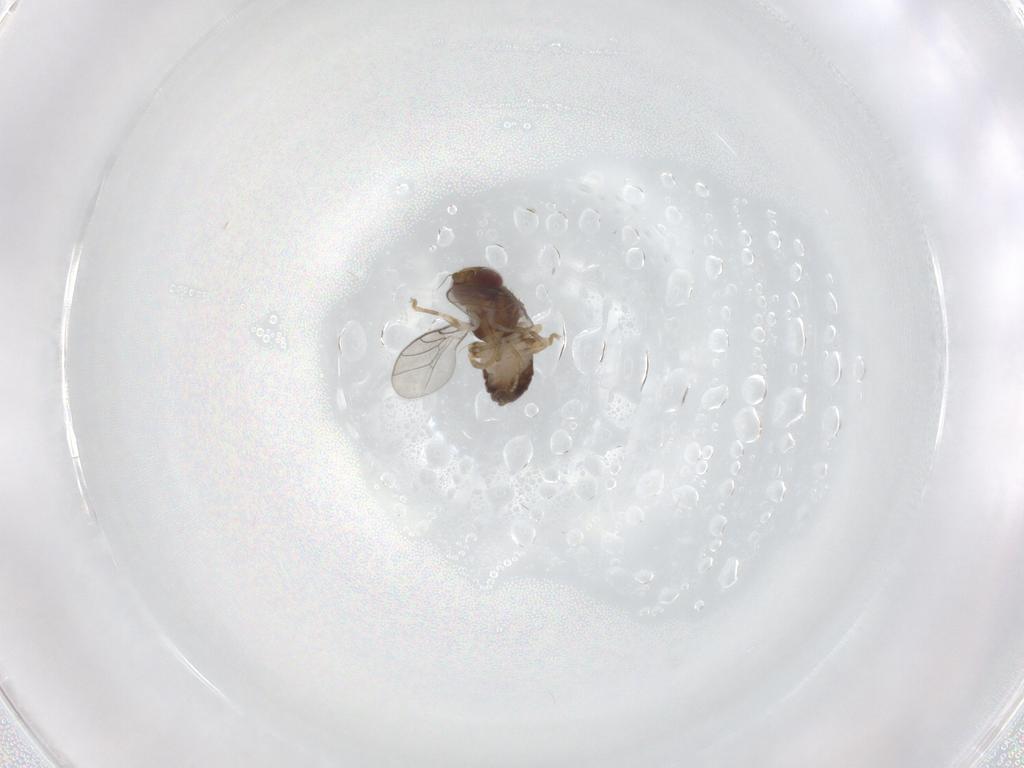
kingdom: Animalia
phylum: Arthropoda
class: Insecta
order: Diptera
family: Chloropidae
